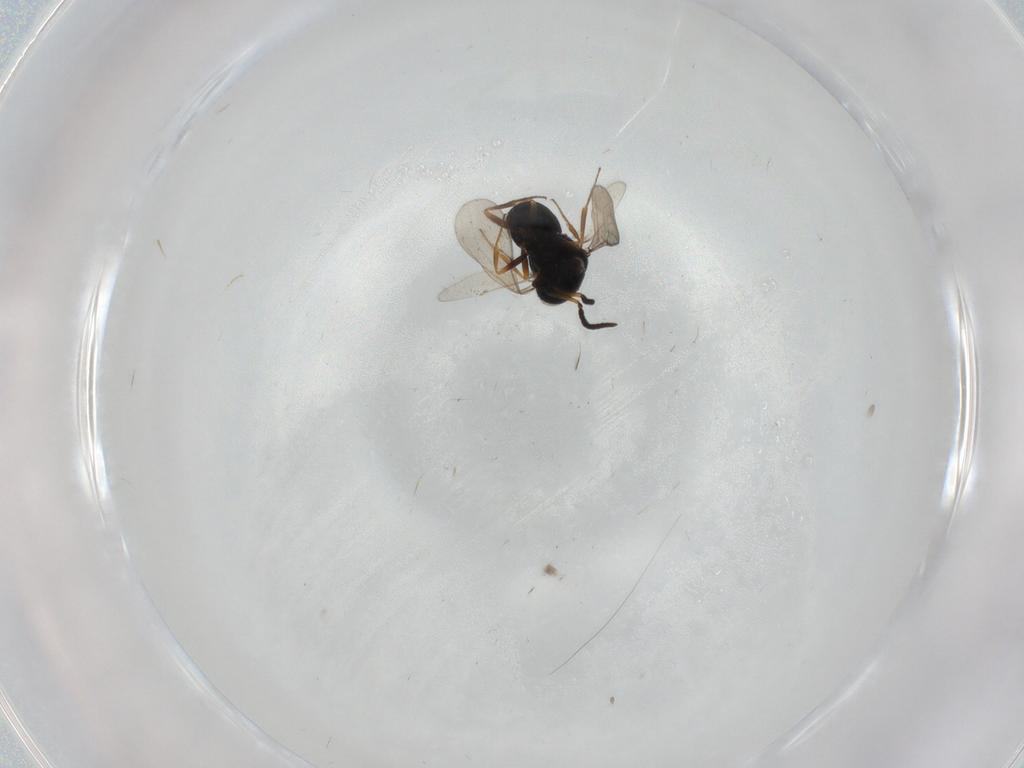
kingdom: Animalia
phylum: Arthropoda
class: Insecta
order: Hymenoptera
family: Scelionidae
